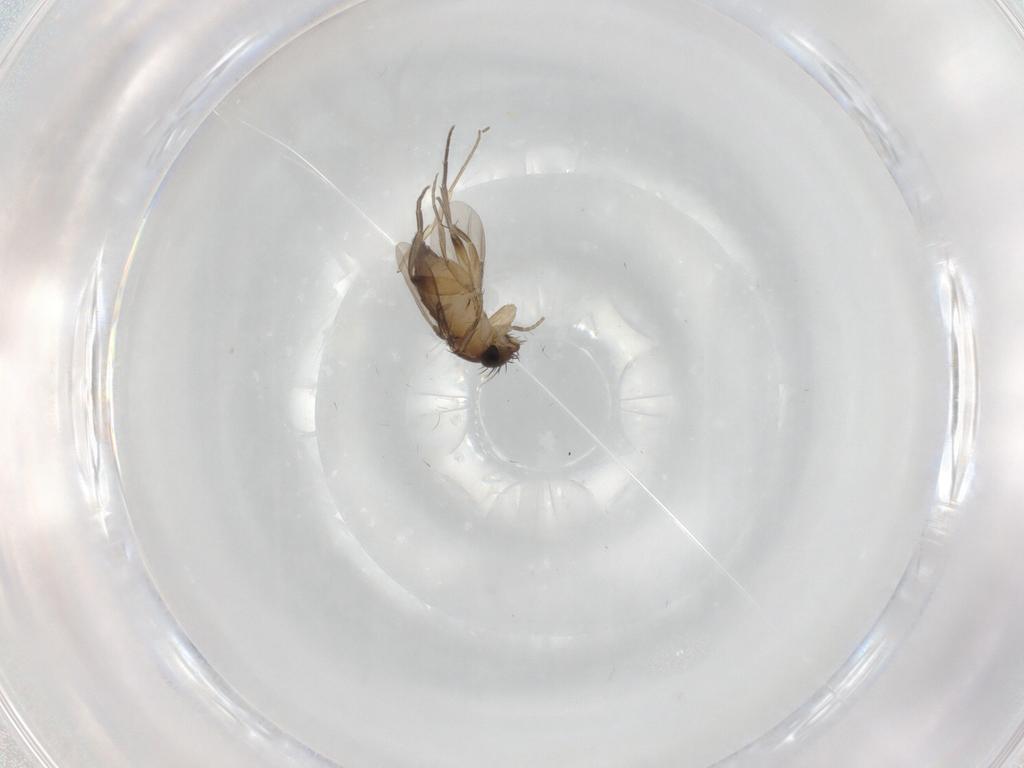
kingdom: Animalia
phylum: Arthropoda
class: Insecta
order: Diptera
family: Phoridae
